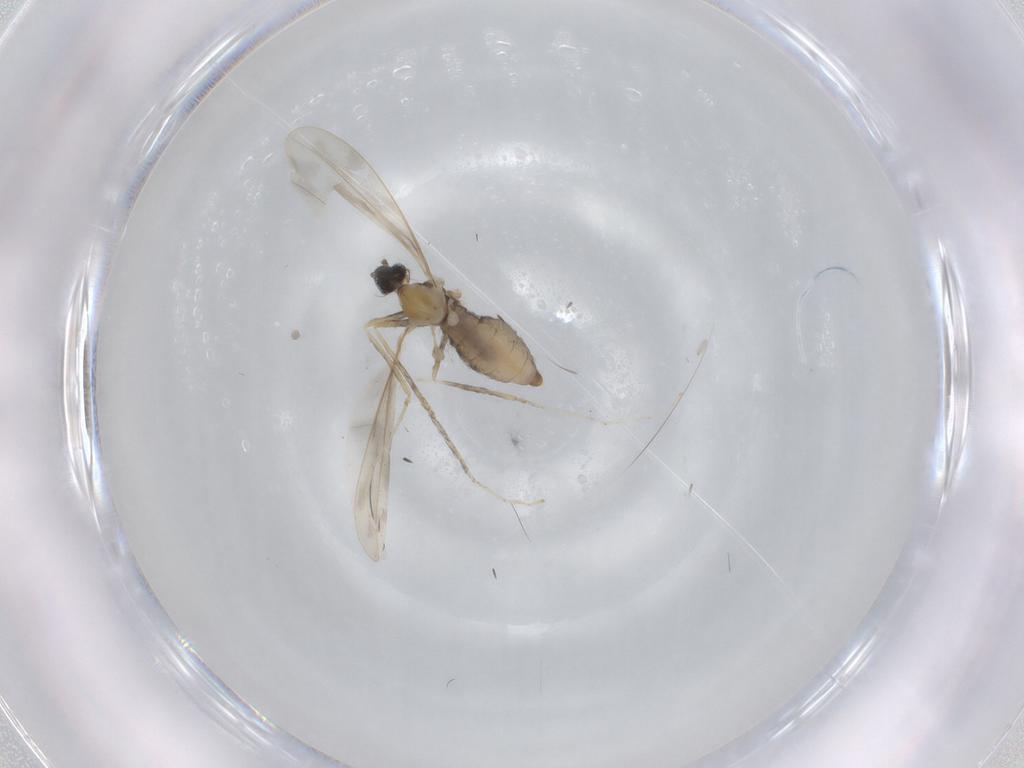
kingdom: Animalia
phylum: Arthropoda
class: Insecta
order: Diptera
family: Cecidomyiidae
